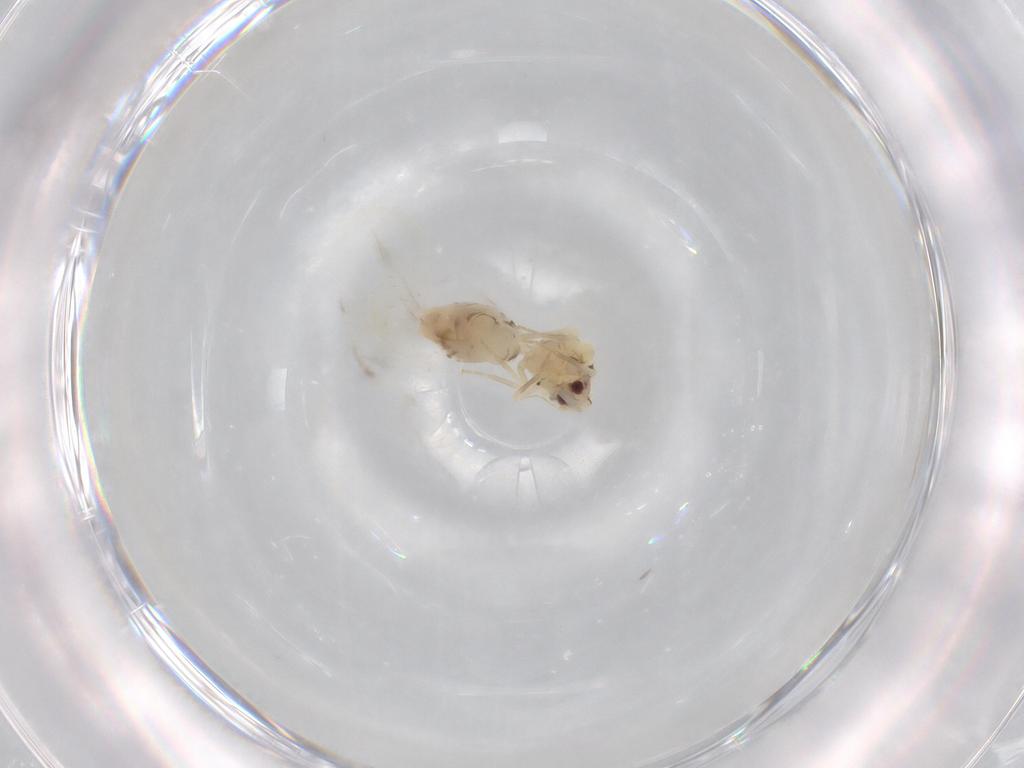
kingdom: Animalia
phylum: Arthropoda
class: Insecta
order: Hemiptera
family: Aleyrodidae
